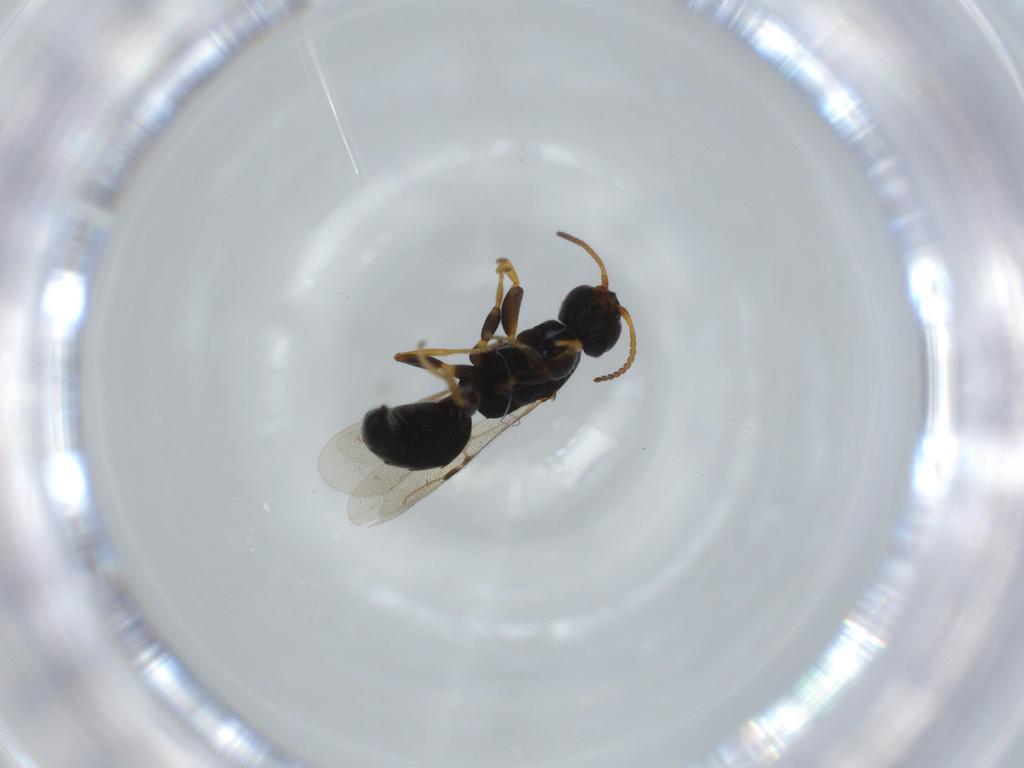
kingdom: Animalia
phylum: Arthropoda
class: Insecta
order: Hymenoptera
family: Bethylidae
